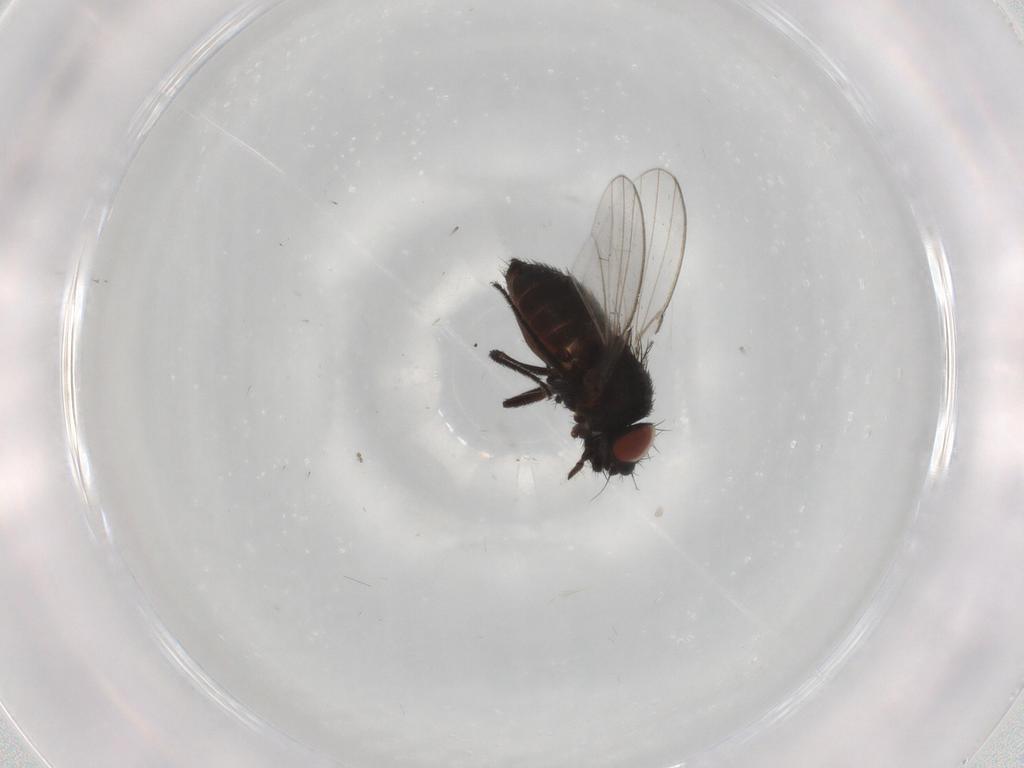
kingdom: Animalia
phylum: Arthropoda
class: Insecta
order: Diptera
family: Milichiidae
